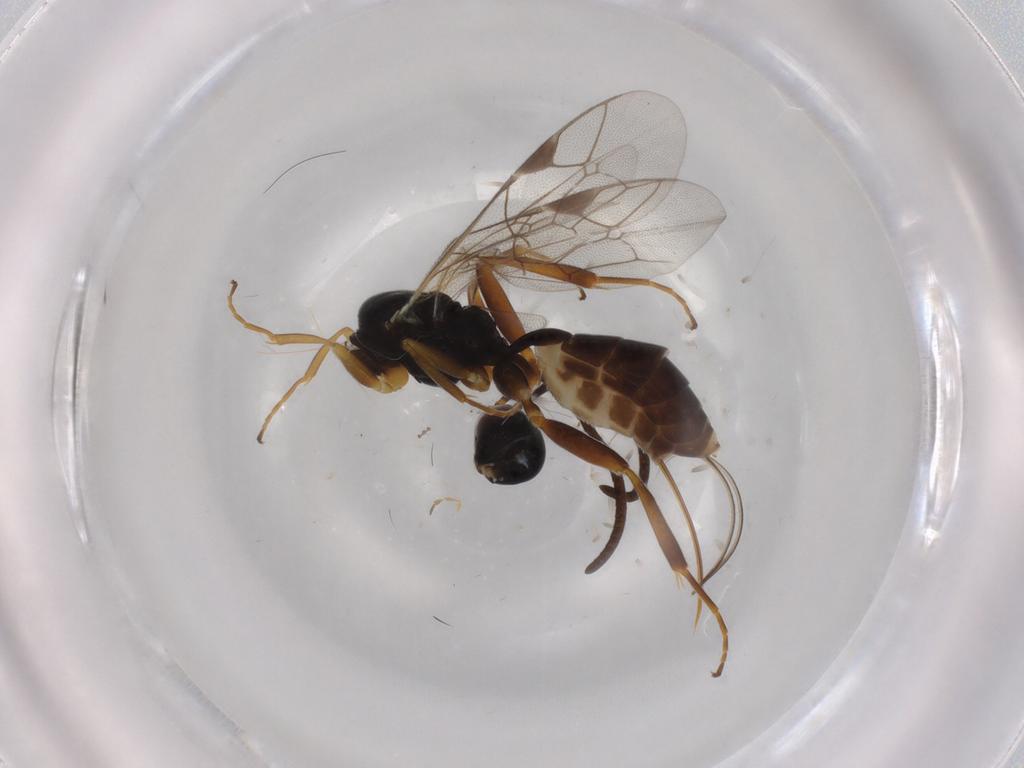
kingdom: Animalia
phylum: Arthropoda
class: Insecta
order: Hymenoptera
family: Ichneumonidae
